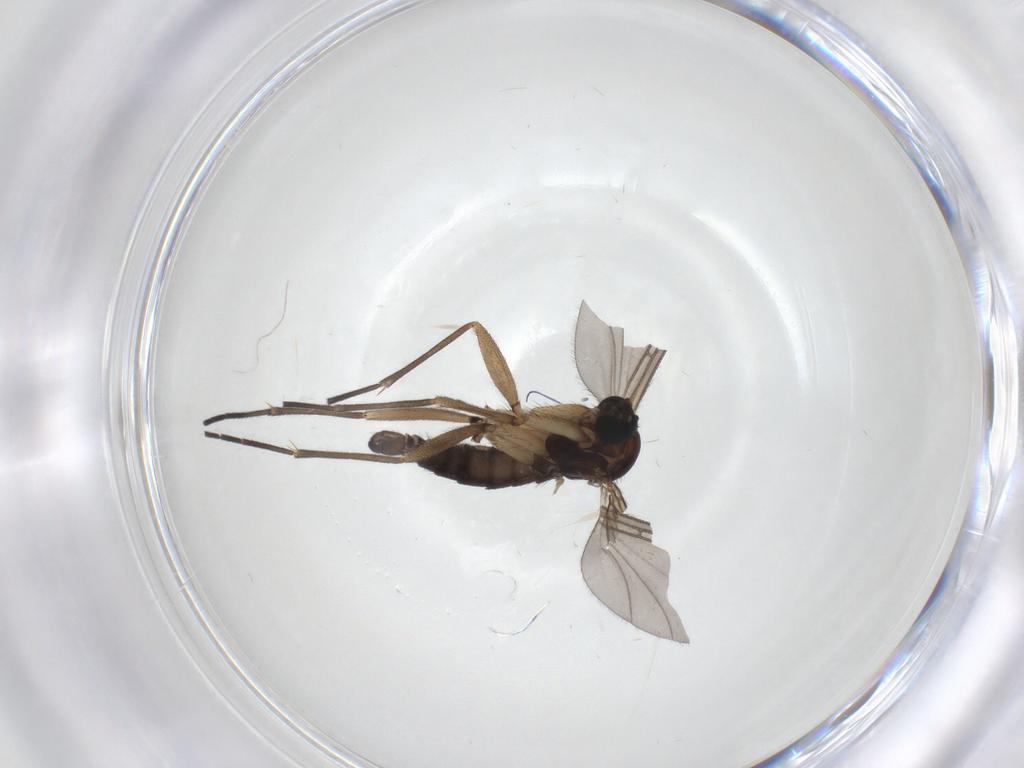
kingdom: Animalia
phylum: Arthropoda
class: Insecta
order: Diptera
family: Sciaridae
